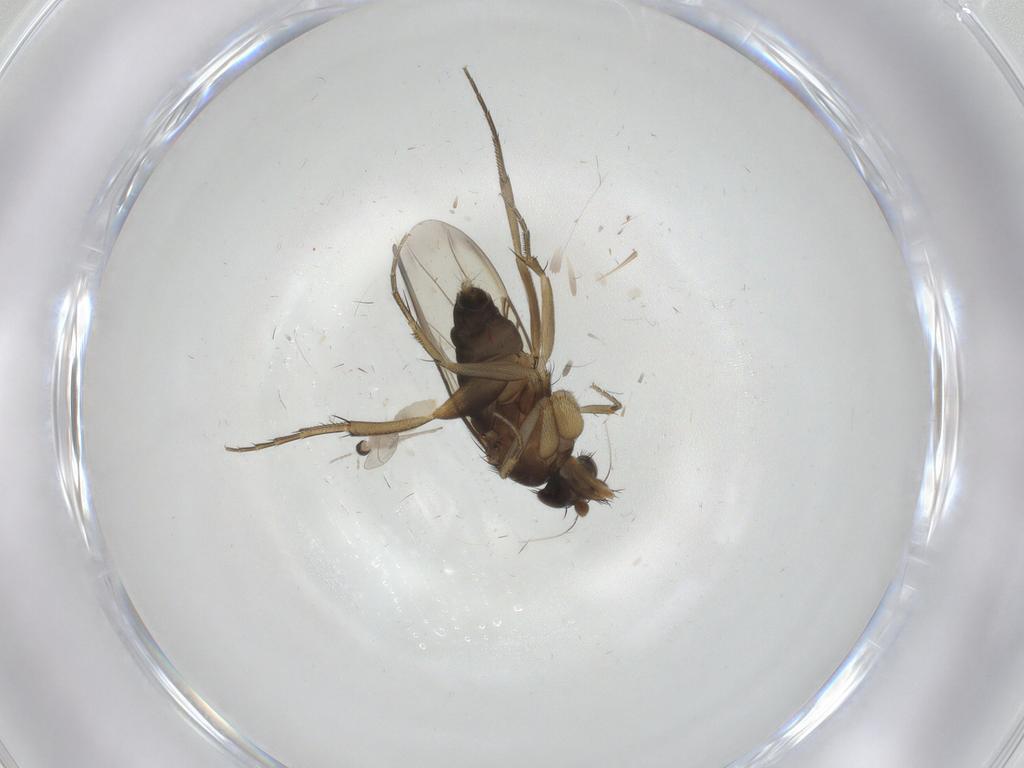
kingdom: Animalia
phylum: Arthropoda
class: Insecta
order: Diptera
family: Phoridae
